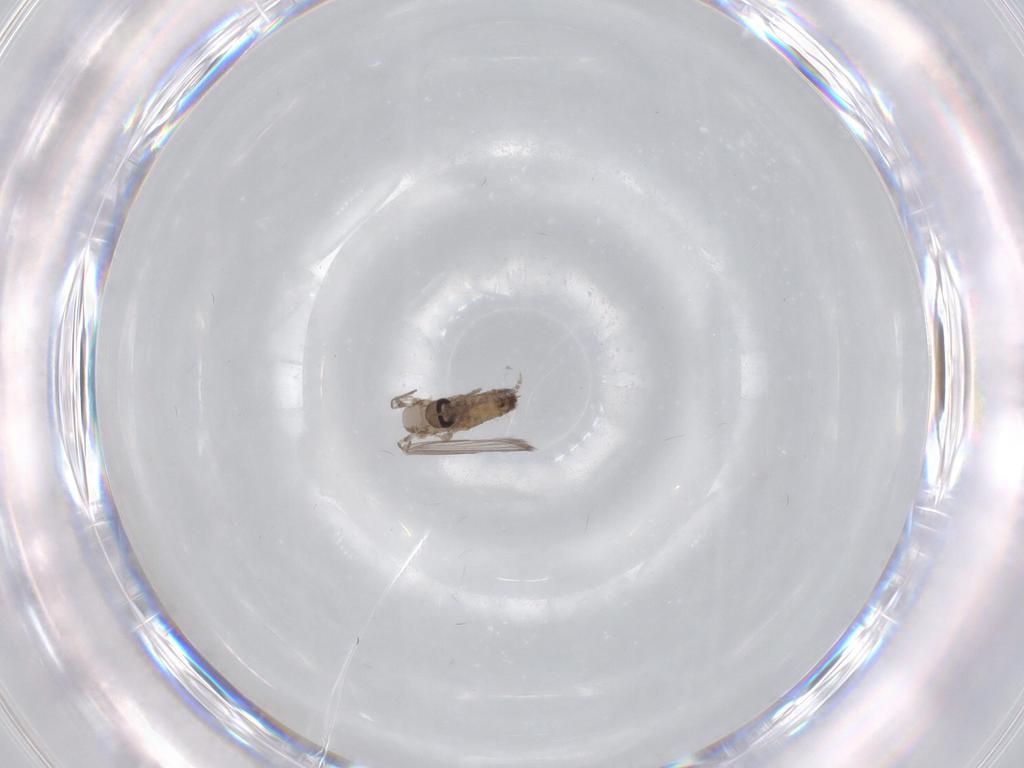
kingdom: Animalia
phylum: Arthropoda
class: Insecta
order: Diptera
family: Psychodidae
